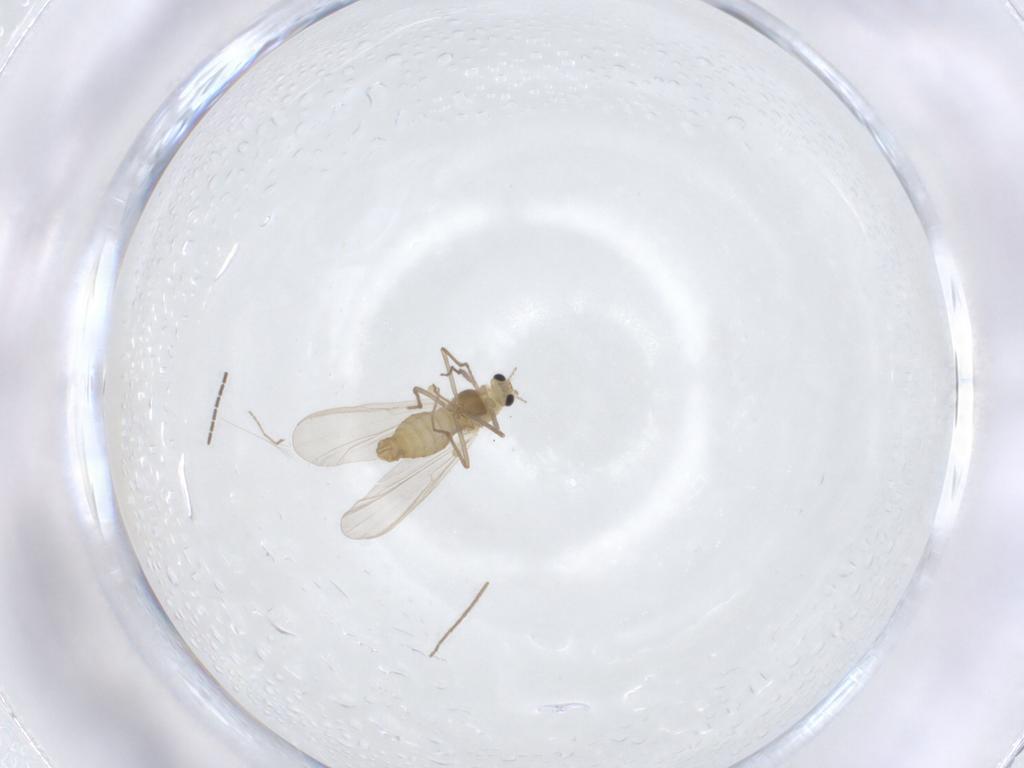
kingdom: Animalia
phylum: Arthropoda
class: Insecta
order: Diptera
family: Chironomidae
